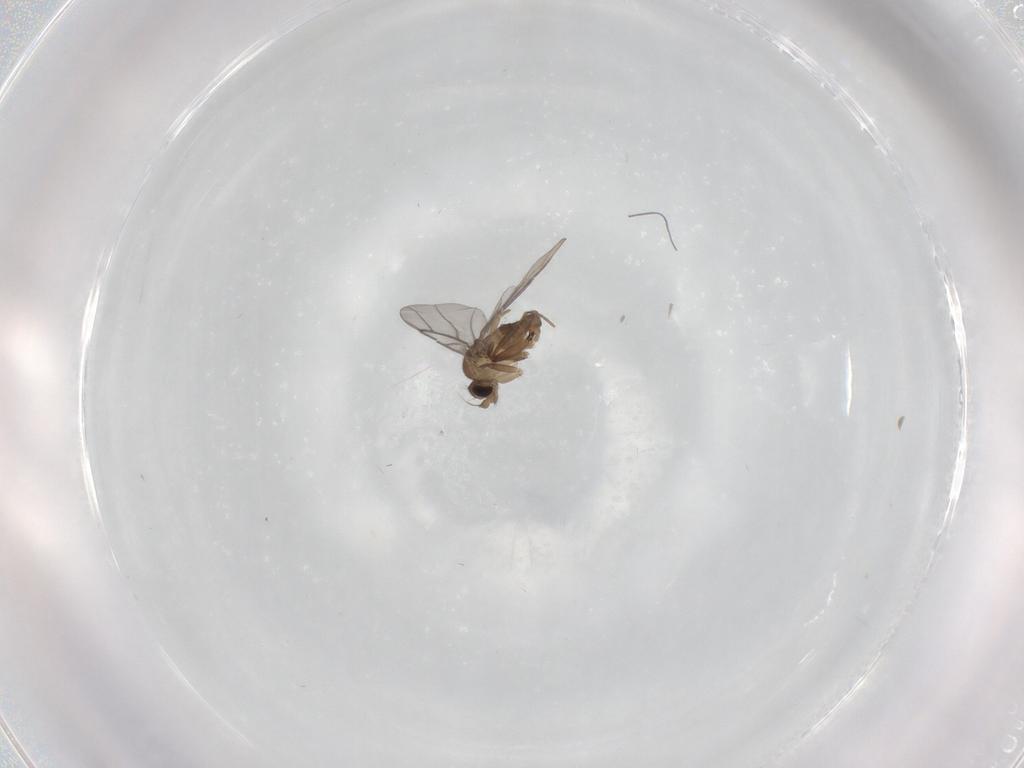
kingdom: Animalia
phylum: Arthropoda
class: Insecta
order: Diptera
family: Cecidomyiidae
